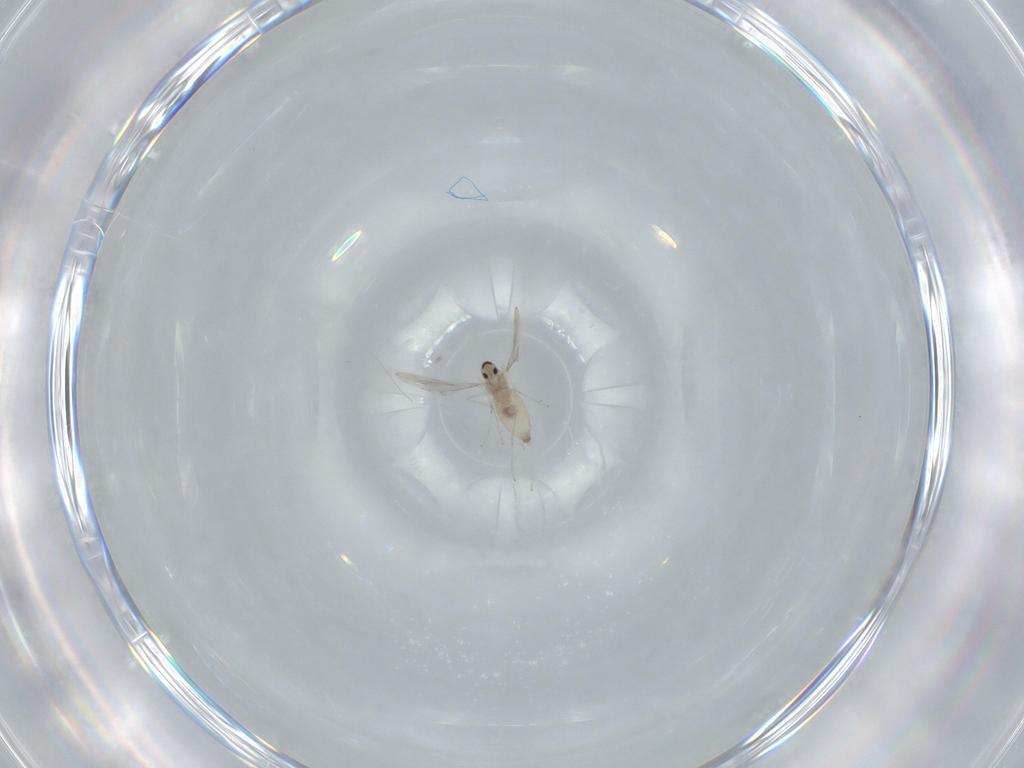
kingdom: Animalia
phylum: Arthropoda
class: Insecta
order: Diptera
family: Cecidomyiidae
